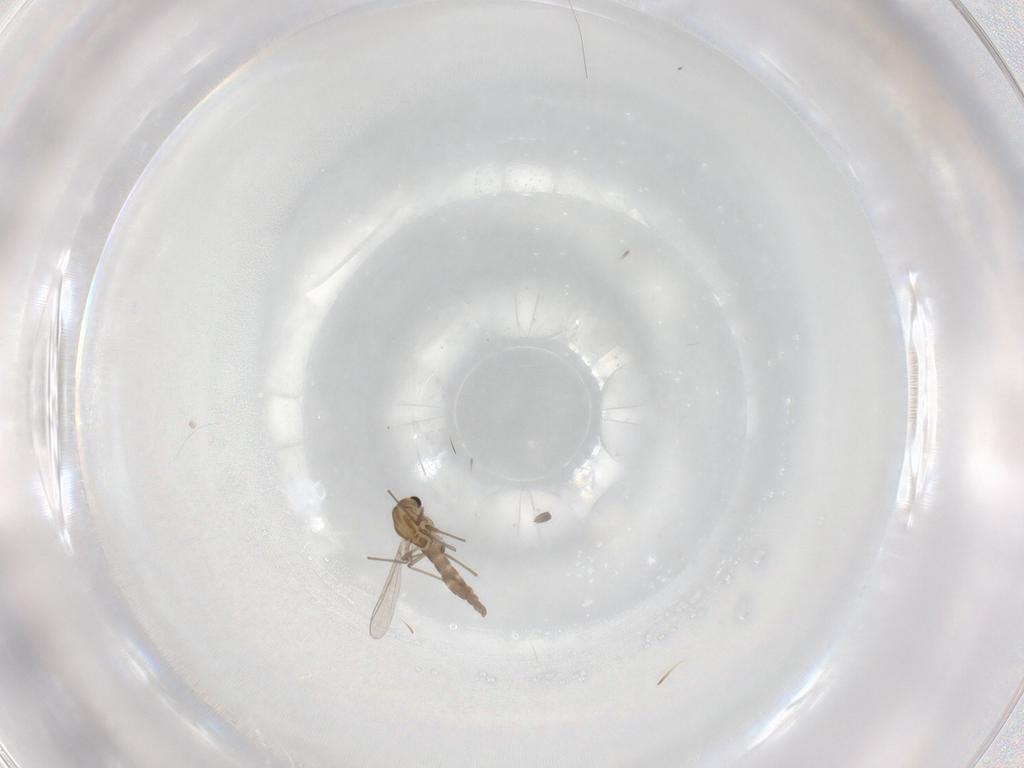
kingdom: Animalia
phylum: Arthropoda
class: Insecta
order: Diptera
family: Chironomidae
